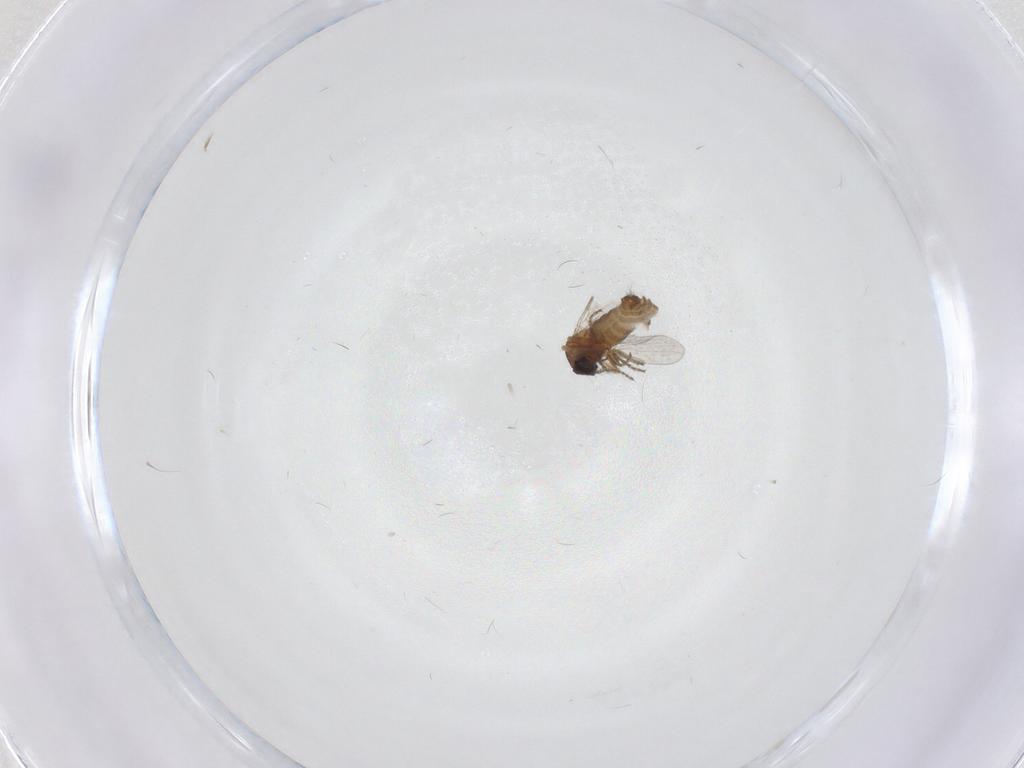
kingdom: Animalia
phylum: Arthropoda
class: Insecta
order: Diptera
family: Ceratopogonidae
